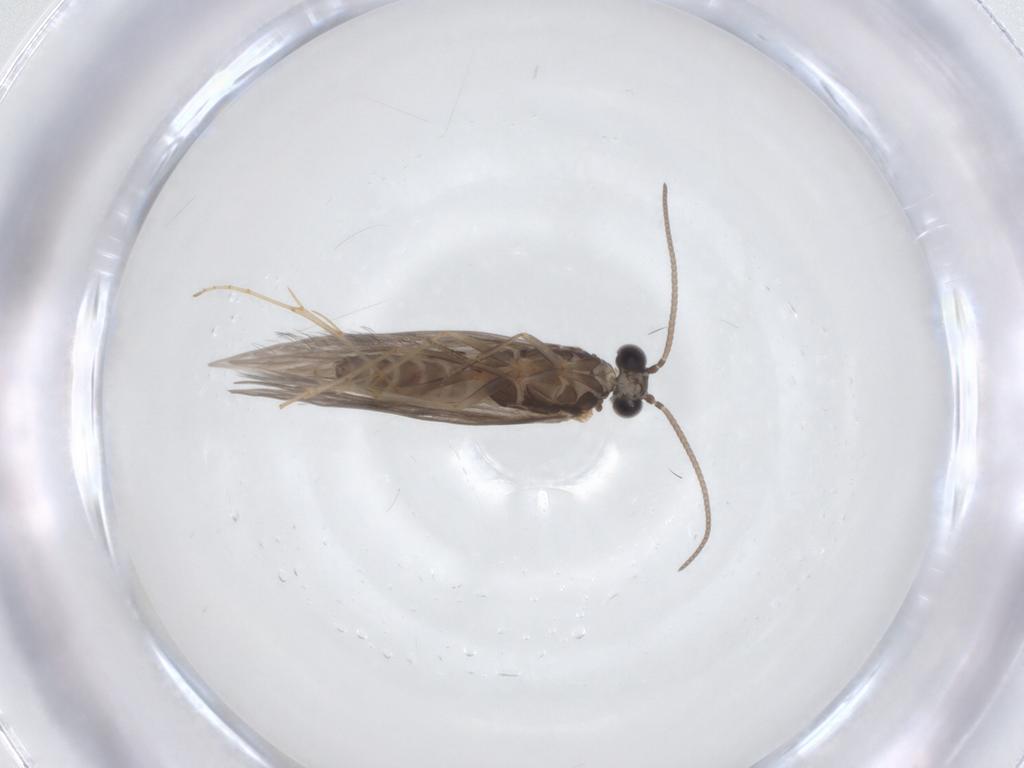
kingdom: Animalia
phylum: Arthropoda
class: Insecta
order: Trichoptera
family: Hydroptilidae
